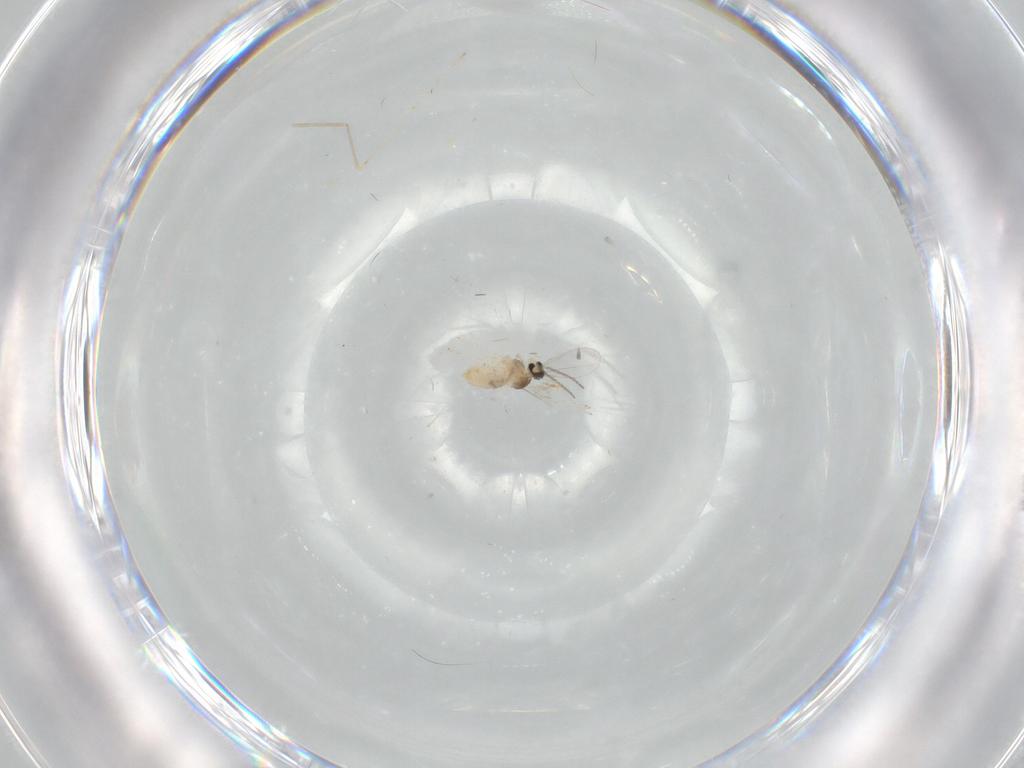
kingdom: Animalia
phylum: Arthropoda
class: Insecta
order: Diptera
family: Cecidomyiidae
